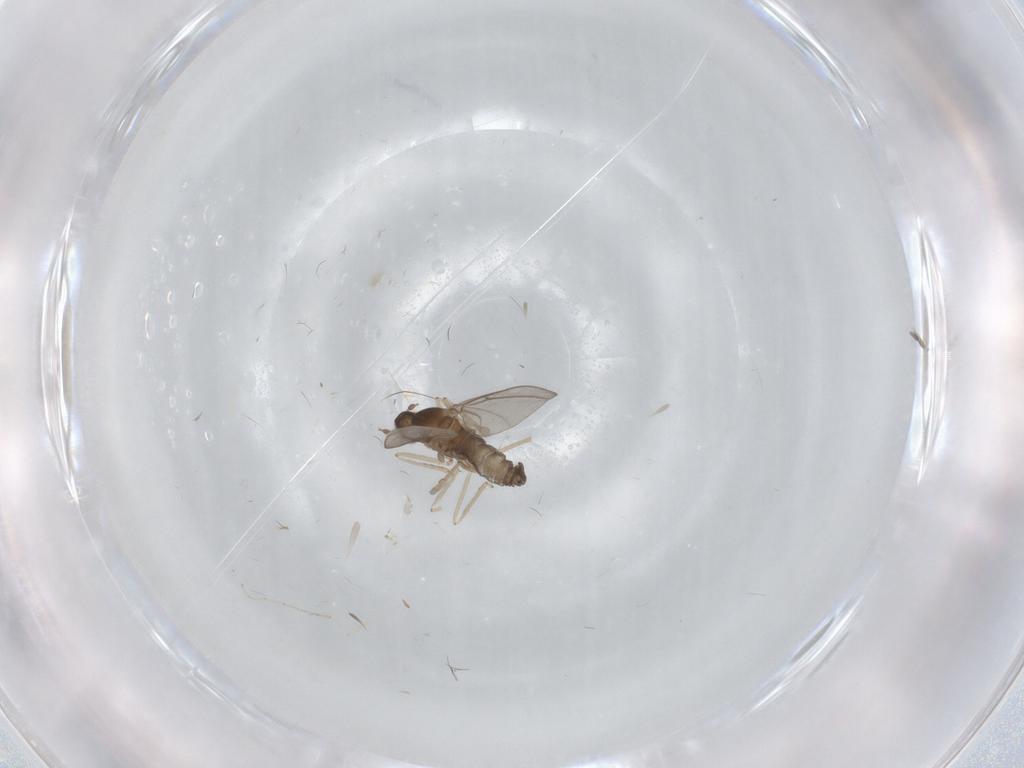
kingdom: Animalia
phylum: Arthropoda
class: Insecta
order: Diptera
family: Cecidomyiidae
